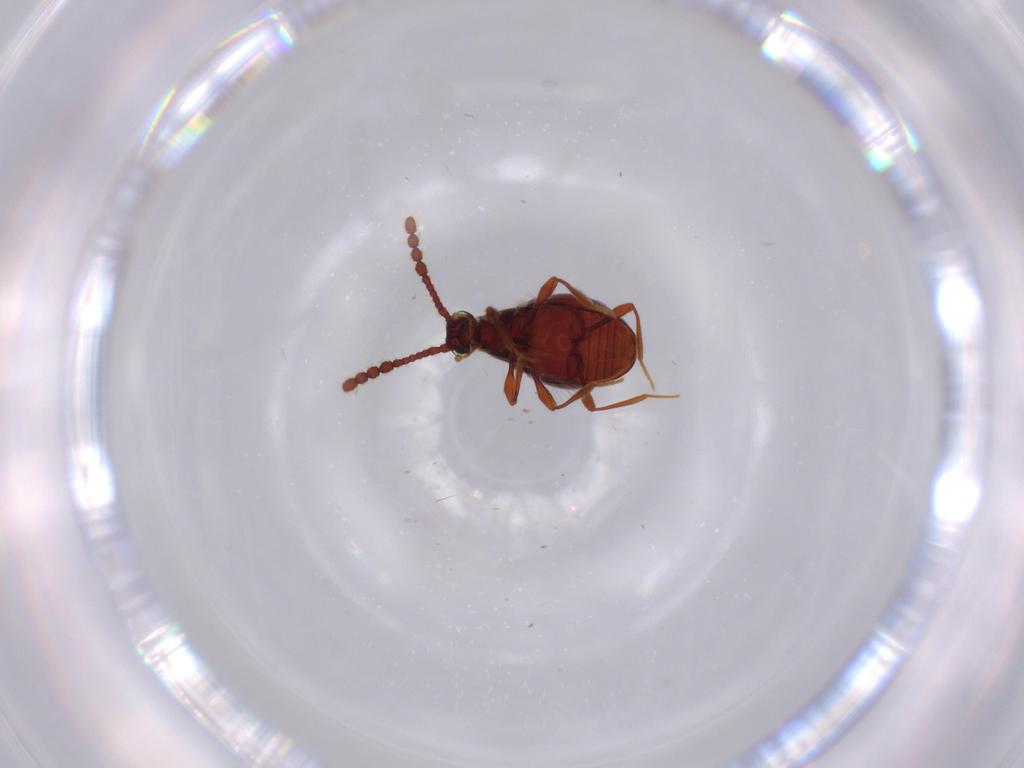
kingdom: Animalia
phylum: Arthropoda
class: Insecta
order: Coleoptera
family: Staphylinidae
